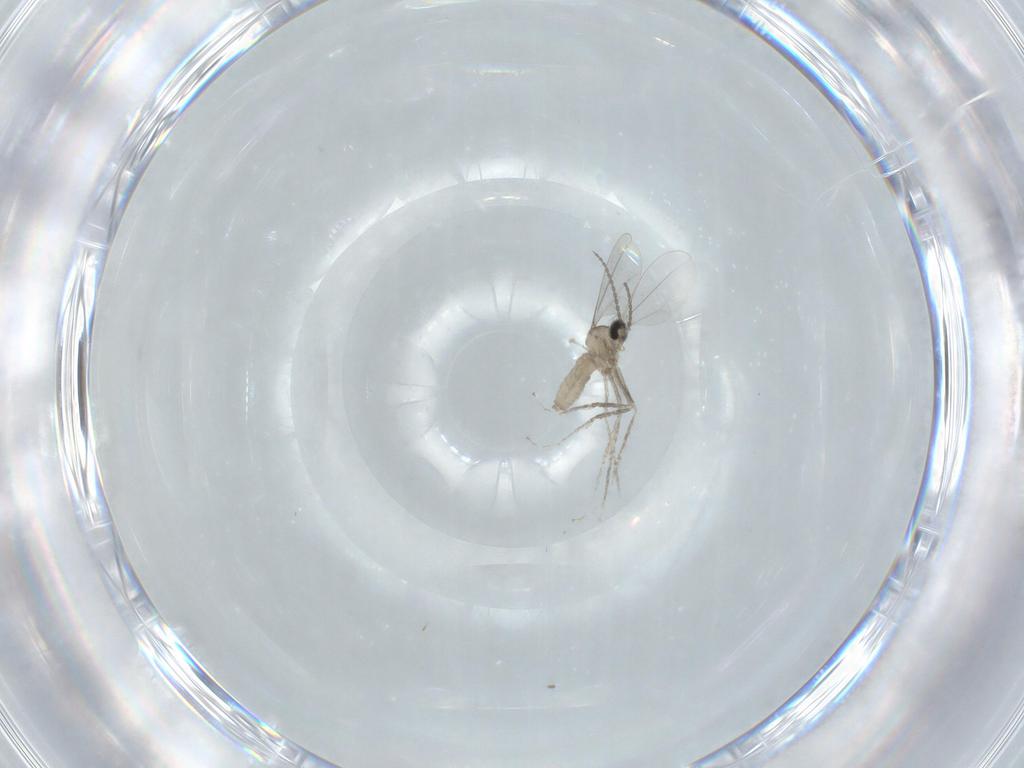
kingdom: Animalia
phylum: Arthropoda
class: Insecta
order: Diptera
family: Cecidomyiidae
